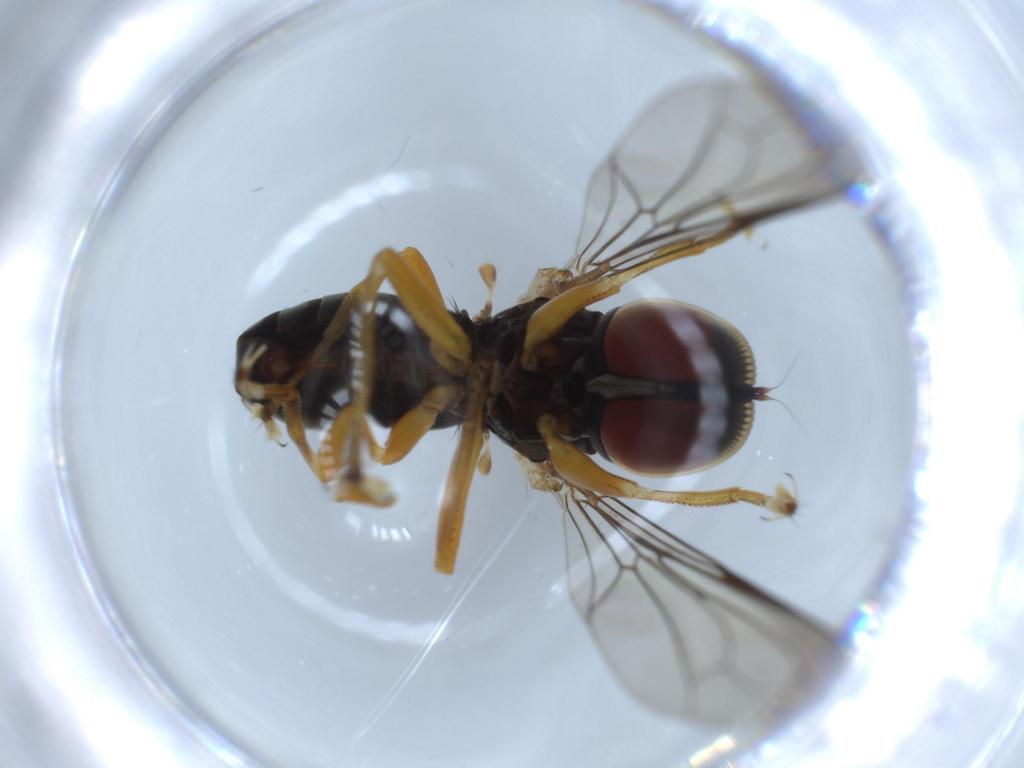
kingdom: Animalia
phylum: Arthropoda
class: Insecta
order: Diptera
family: Pipunculidae
